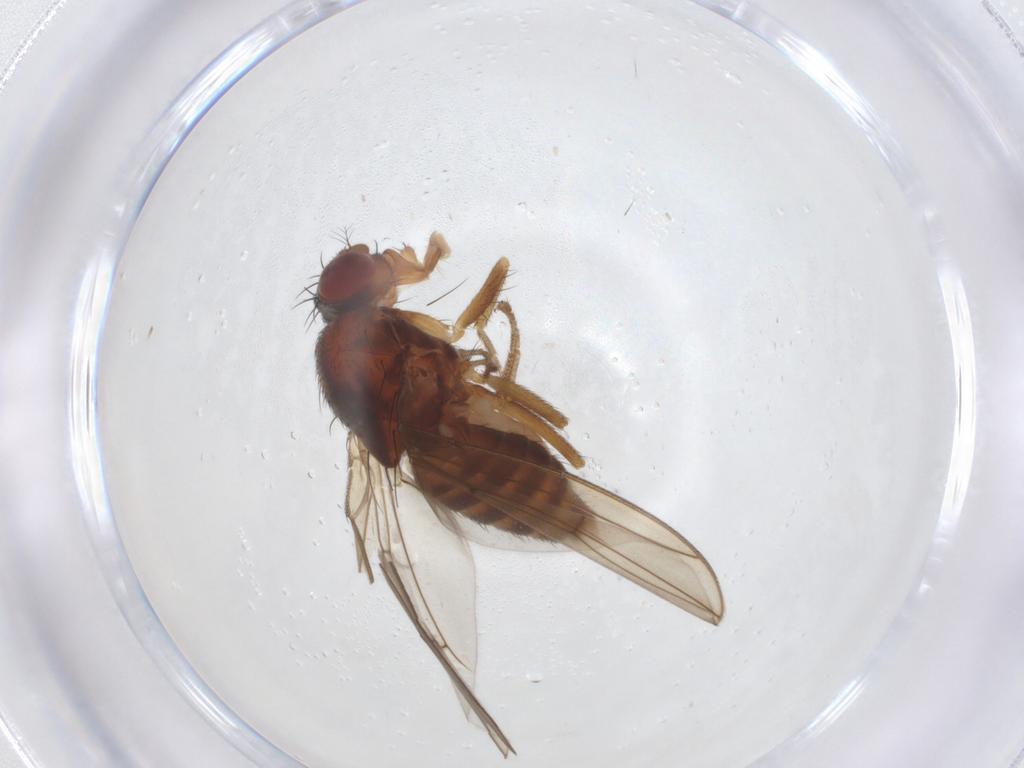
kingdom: Animalia
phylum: Arthropoda
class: Insecta
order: Diptera
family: Drosophilidae
